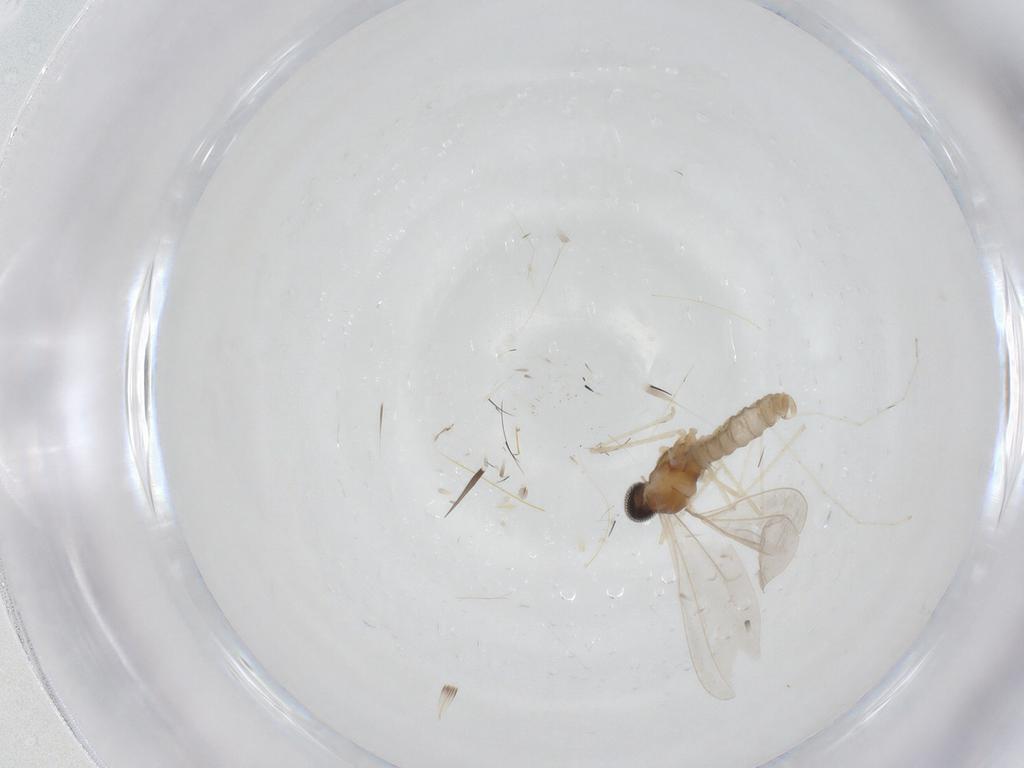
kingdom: Animalia
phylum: Arthropoda
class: Insecta
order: Diptera
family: Cecidomyiidae
